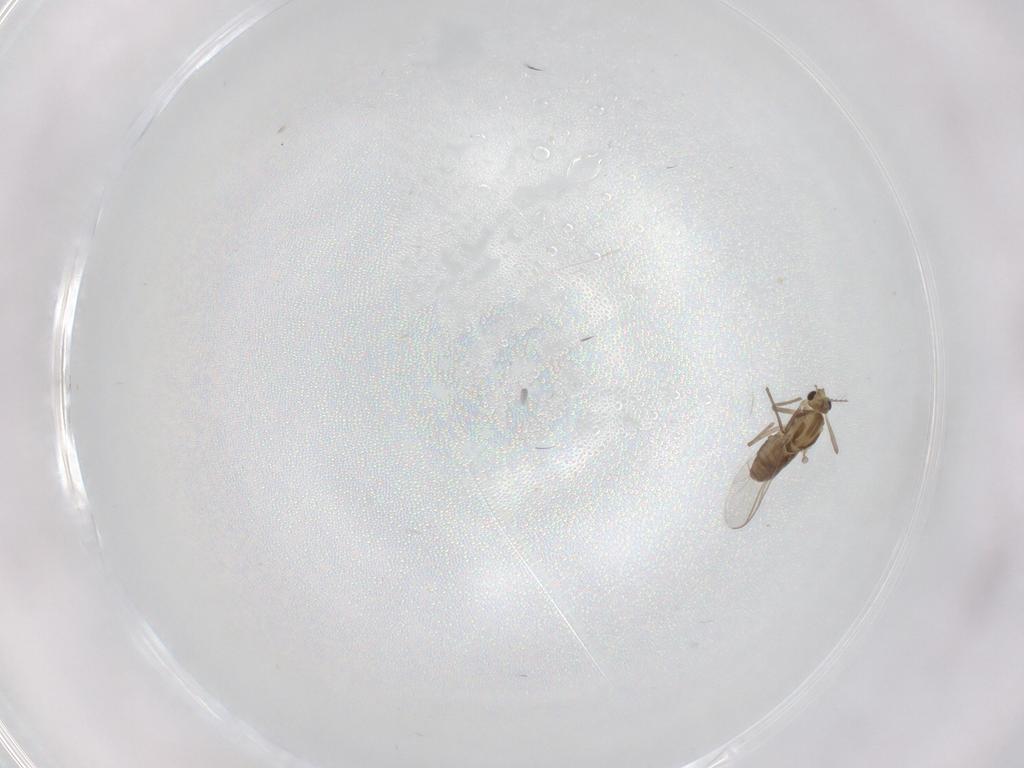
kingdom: Animalia
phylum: Arthropoda
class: Insecta
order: Diptera
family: Chironomidae
